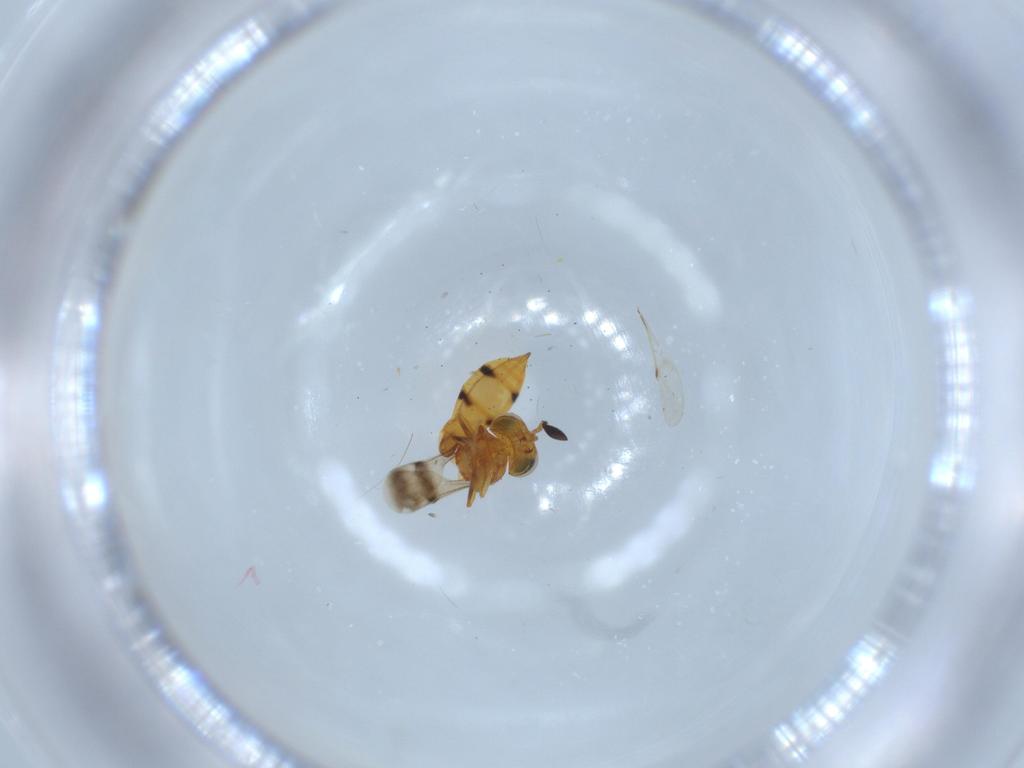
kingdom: Animalia
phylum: Arthropoda
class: Insecta
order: Hymenoptera
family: Scelionidae
